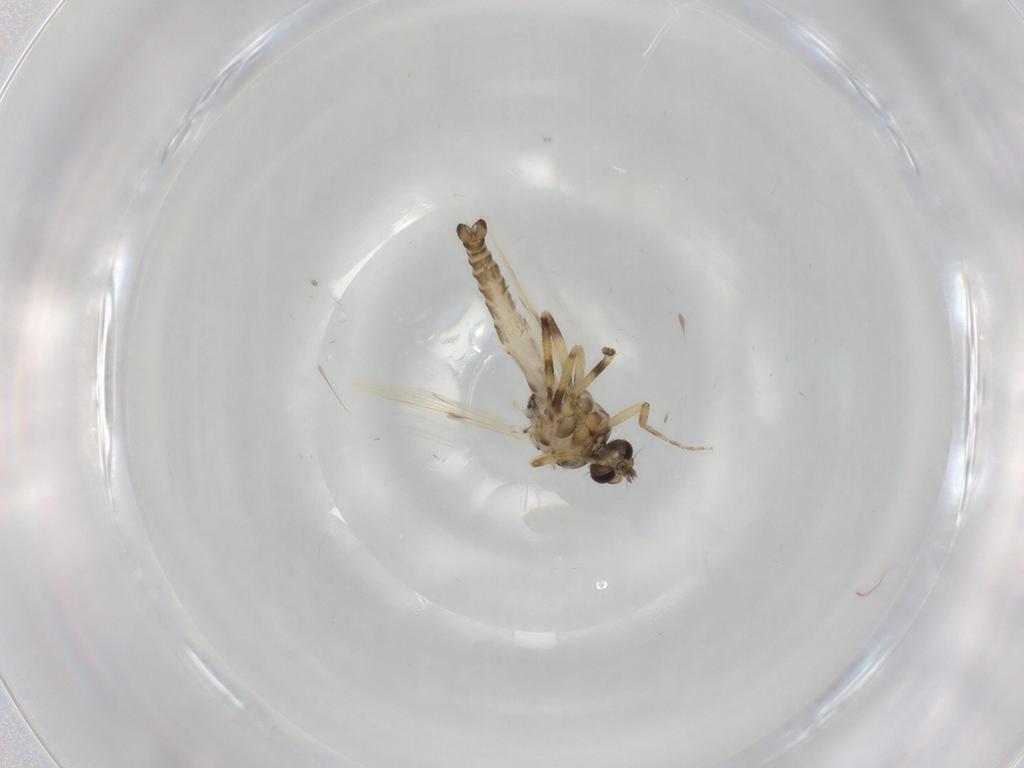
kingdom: Animalia
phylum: Arthropoda
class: Insecta
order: Diptera
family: Ceratopogonidae
